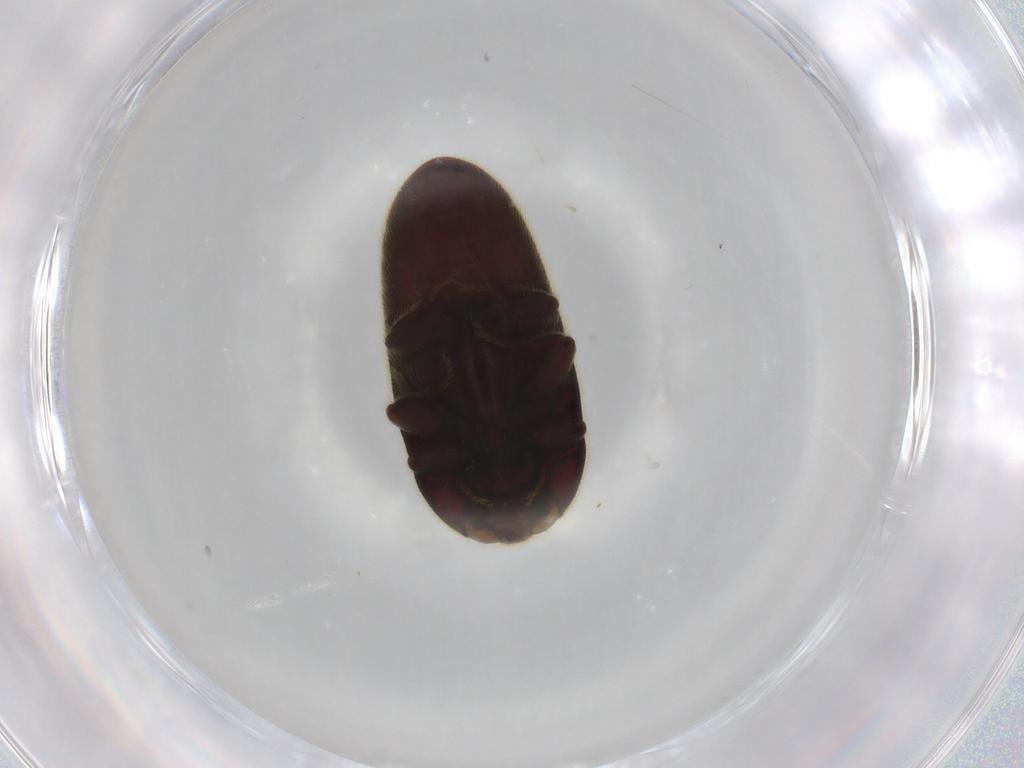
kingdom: Animalia
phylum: Arthropoda
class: Insecta
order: Coleoptera
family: Throscidae
